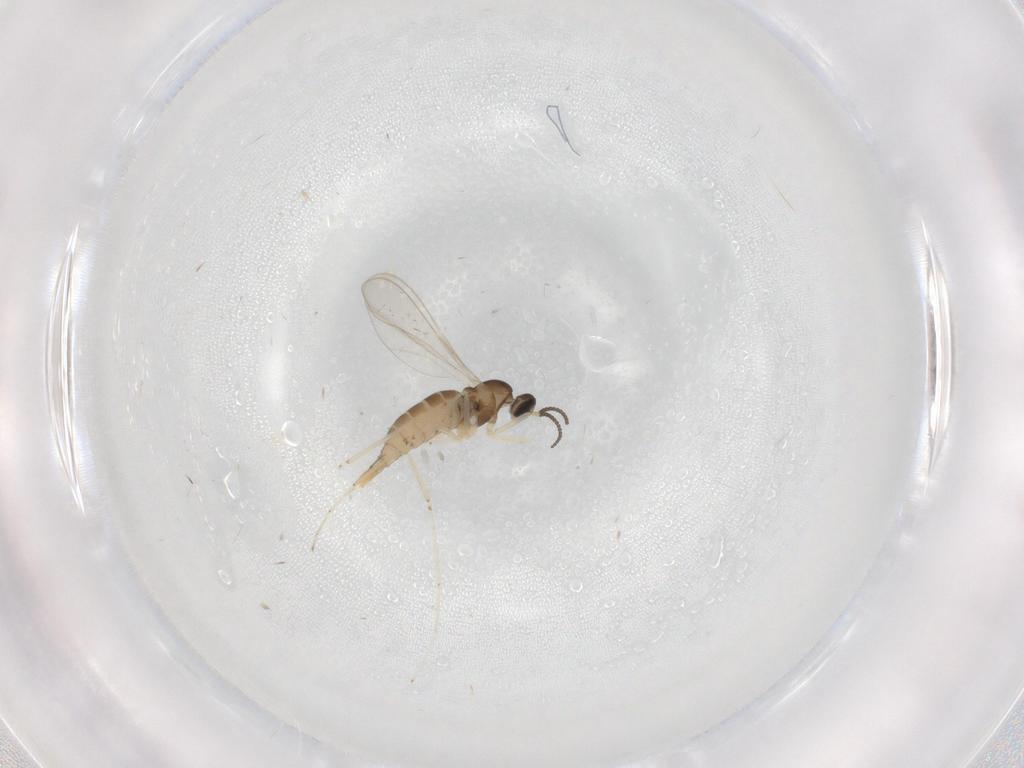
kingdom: Animalia
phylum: Arthropoda
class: Insecta
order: Diptera
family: Cecidomyiidae
